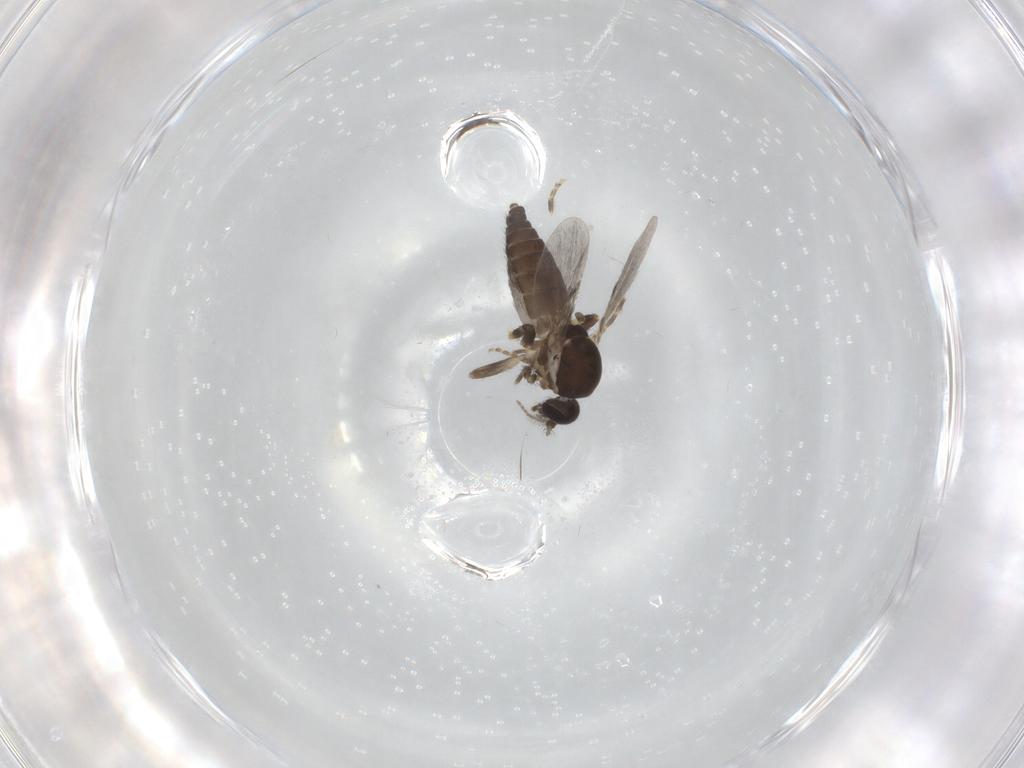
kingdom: Animalia
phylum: Arthropoda
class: Insecta
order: Diptera
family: Ceratopogonidae
